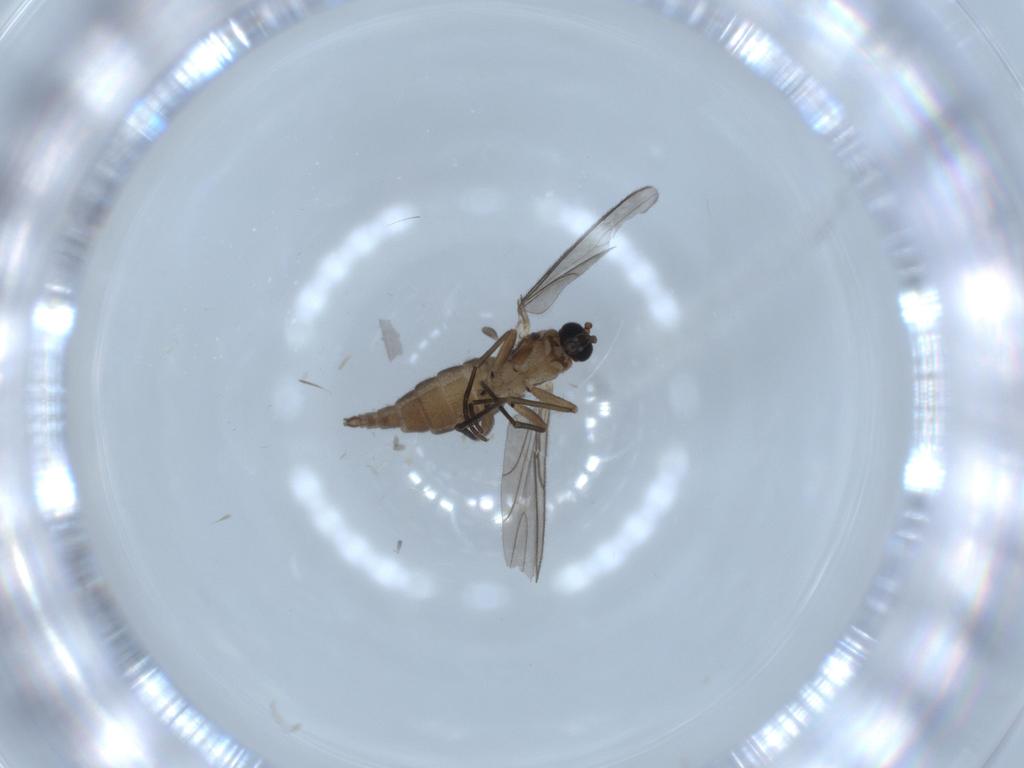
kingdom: Animalia
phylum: Arthropoda
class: Insecta
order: Diptera
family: Sciaridae
